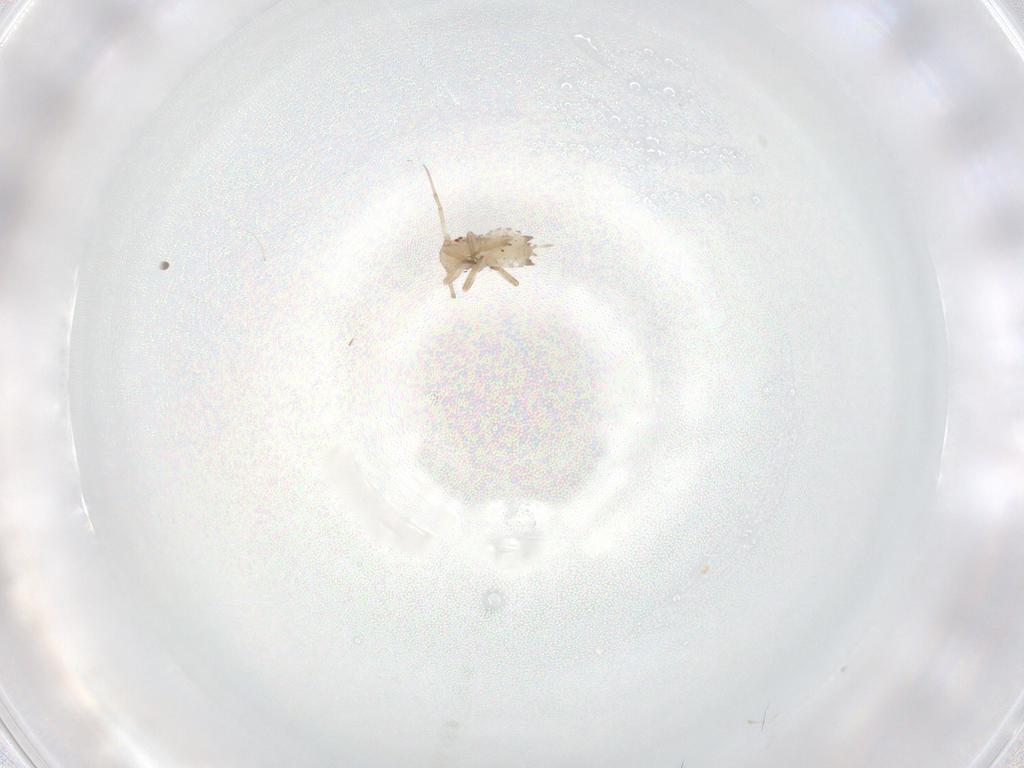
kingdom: Animalia
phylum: Arthropoda
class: Insecta
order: Hemiptera
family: Aphididae
